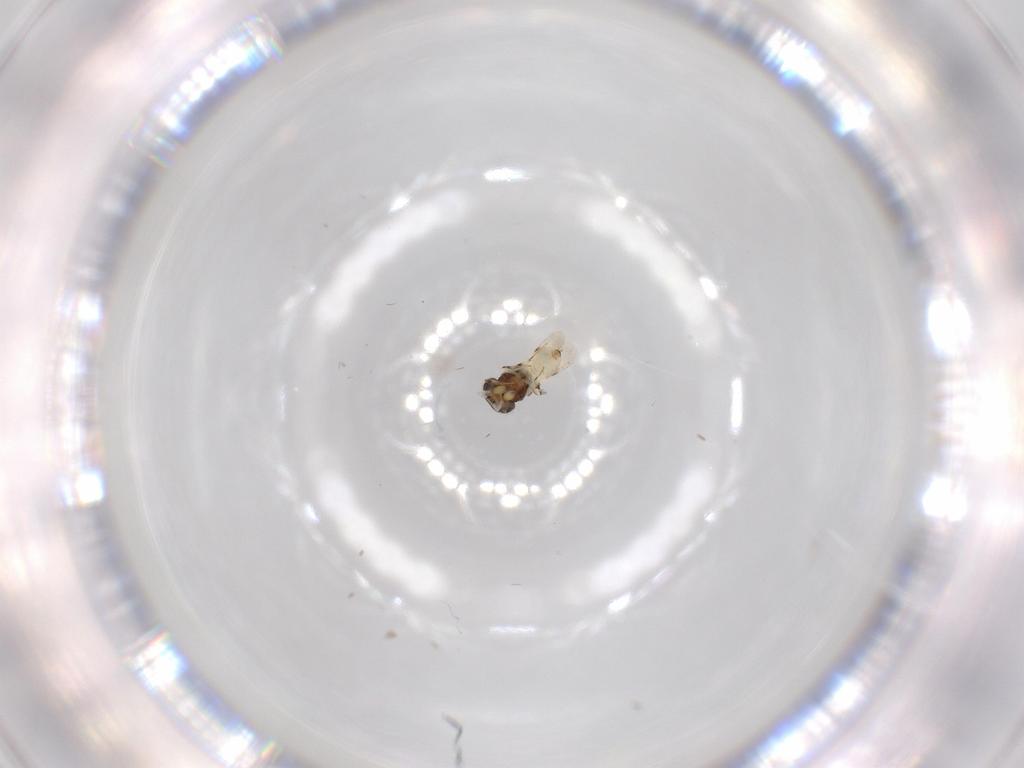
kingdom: Animalia
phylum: Arthropoda
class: Insecta
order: Hymenoptera
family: Scelionidae
